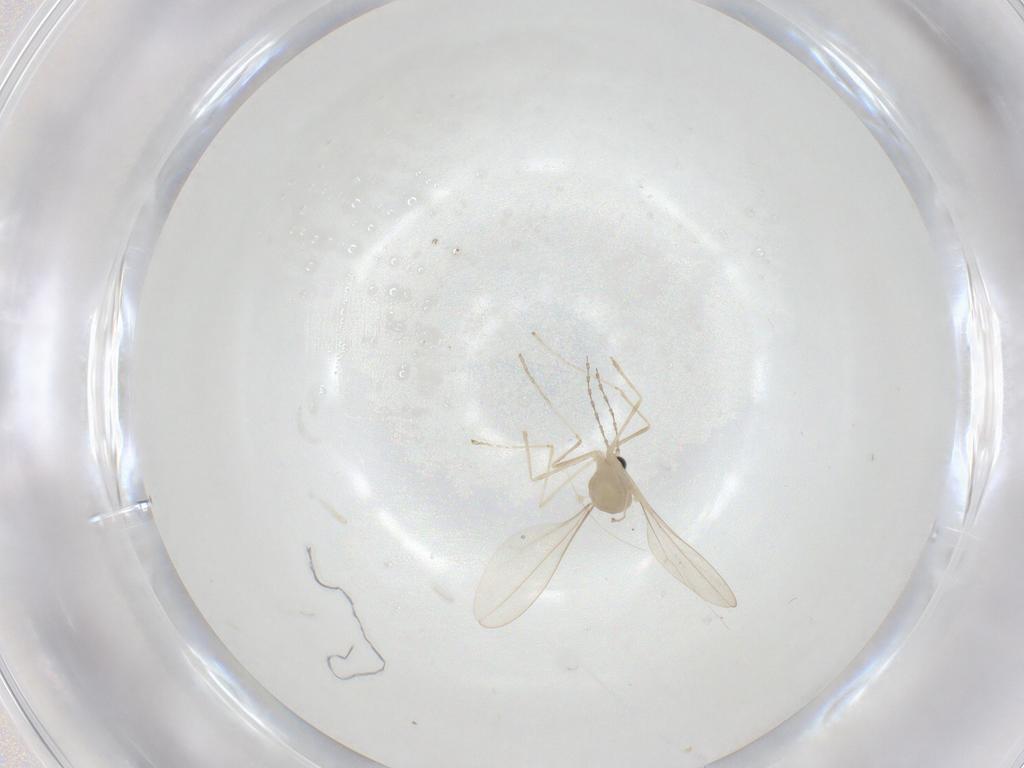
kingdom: Animalia
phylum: Arthropoda
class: Insecta
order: Diptera
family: Cecidomyiidae
